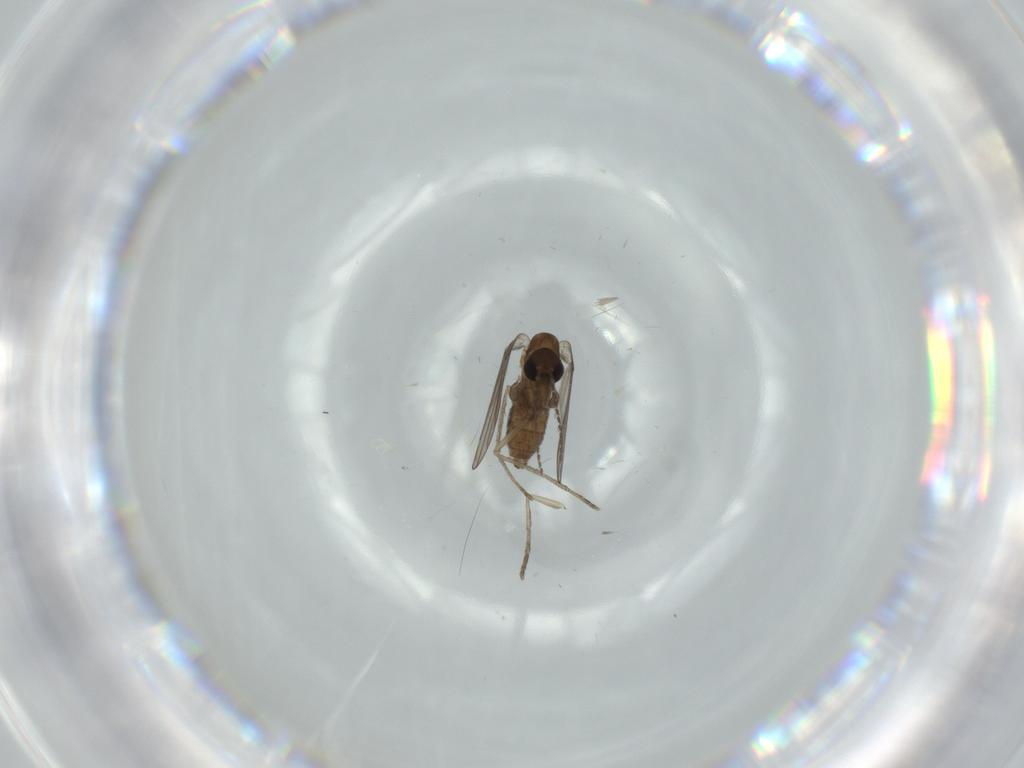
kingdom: Animalia
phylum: Arthropoda
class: Insecta
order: Diptera
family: Psychodidae
